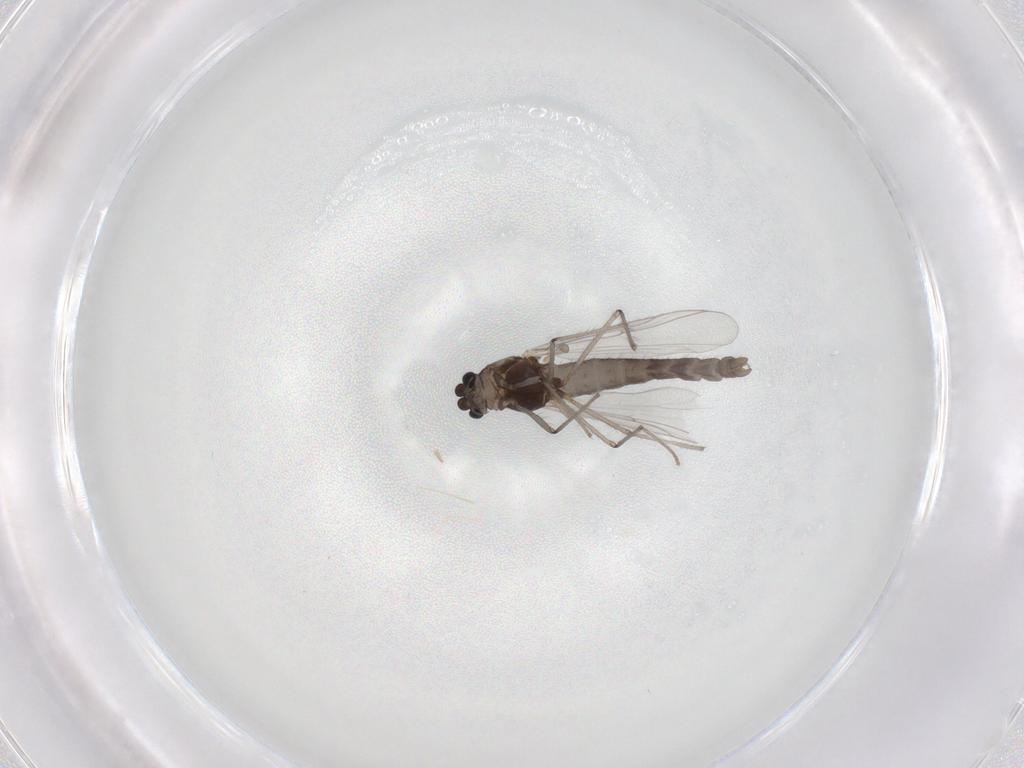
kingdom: Animalia
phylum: Arthropoda
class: Insecta
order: Diptera
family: Chironomidae
